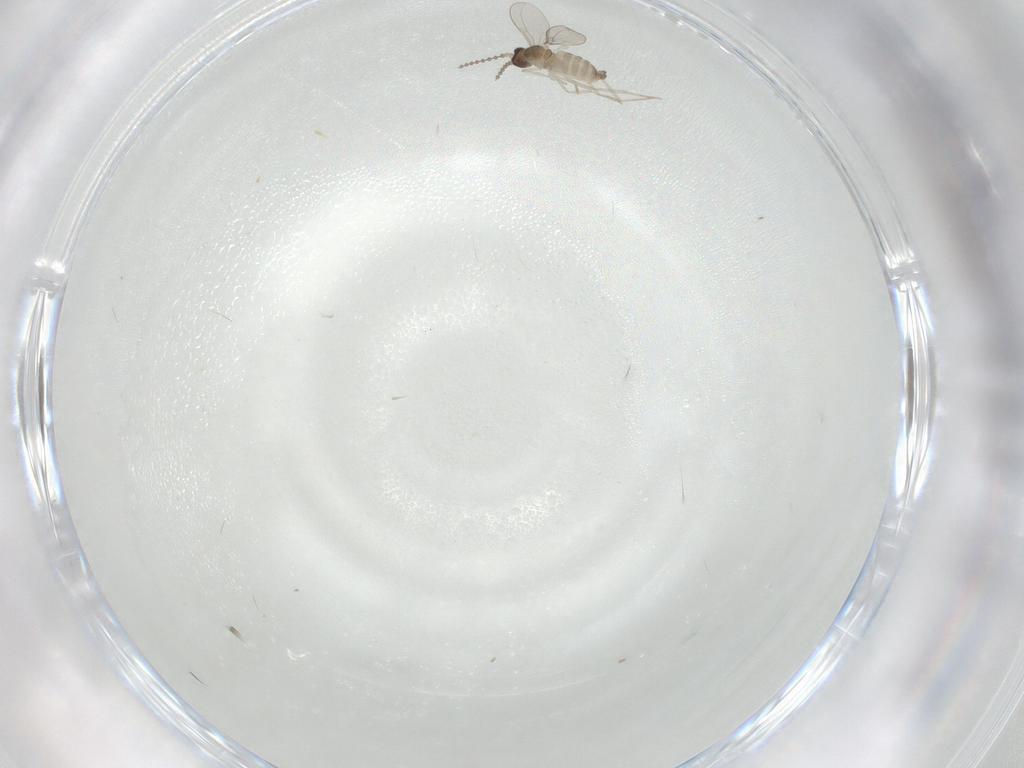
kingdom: Animalia
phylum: Arthropoda
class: Insecta
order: Diptera
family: Cecidomyiidae
